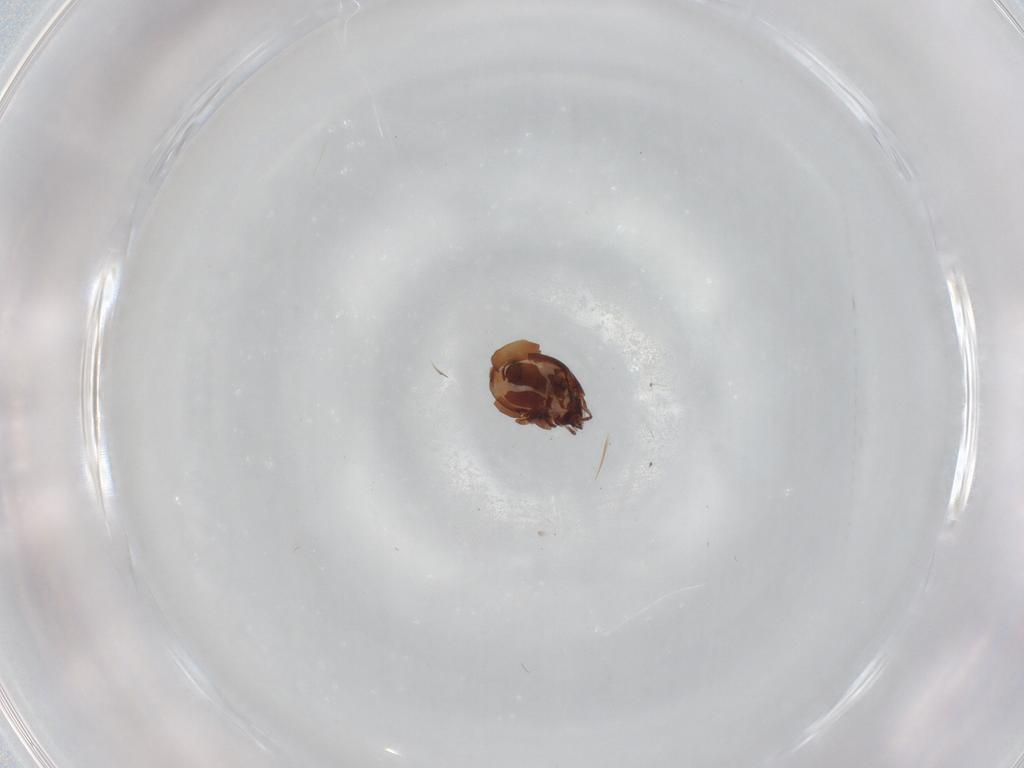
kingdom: Animalia
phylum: Arthropoda
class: Arachnida
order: Sarcoptiformes
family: Humerobatidae
